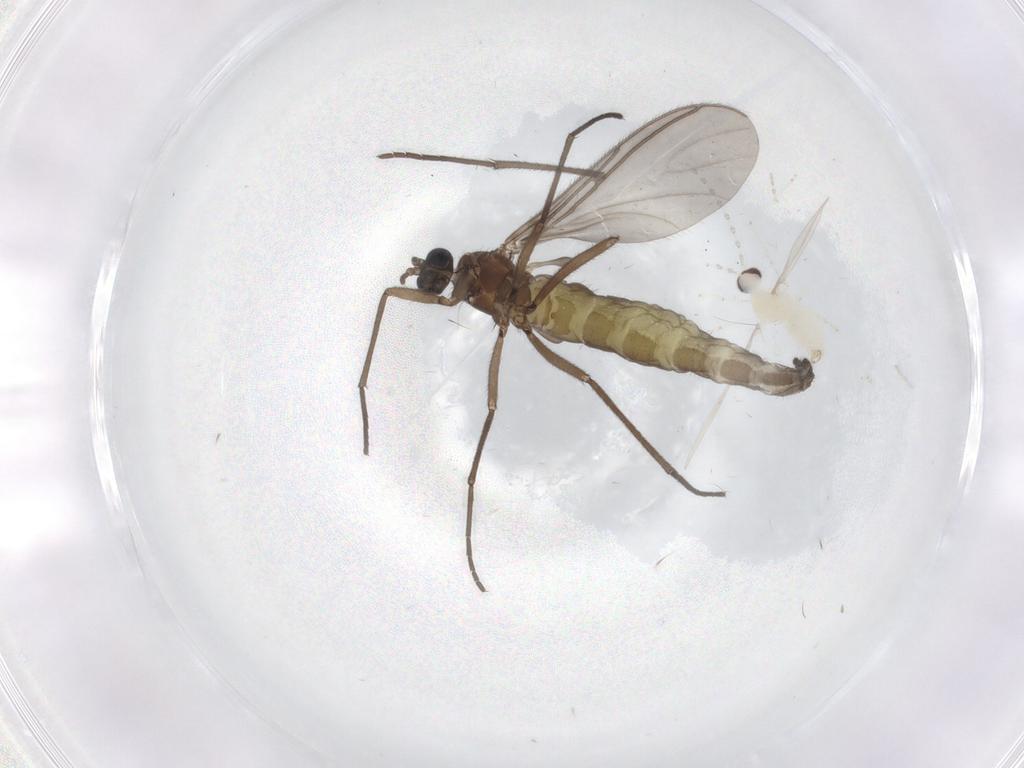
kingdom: Animalia
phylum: Arthropoda
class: Insecta
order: Diptera
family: Cecidomyiidae
